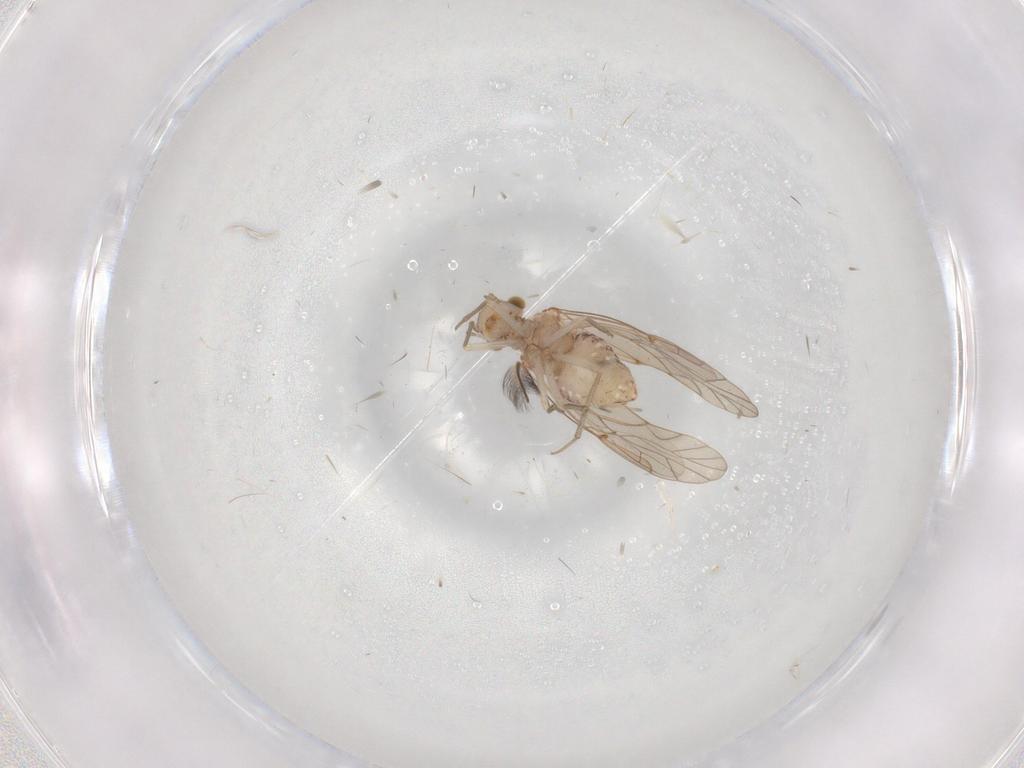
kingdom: Animalia
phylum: Arthropoda
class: Insecta
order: Psocodea
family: Lachesillidae
